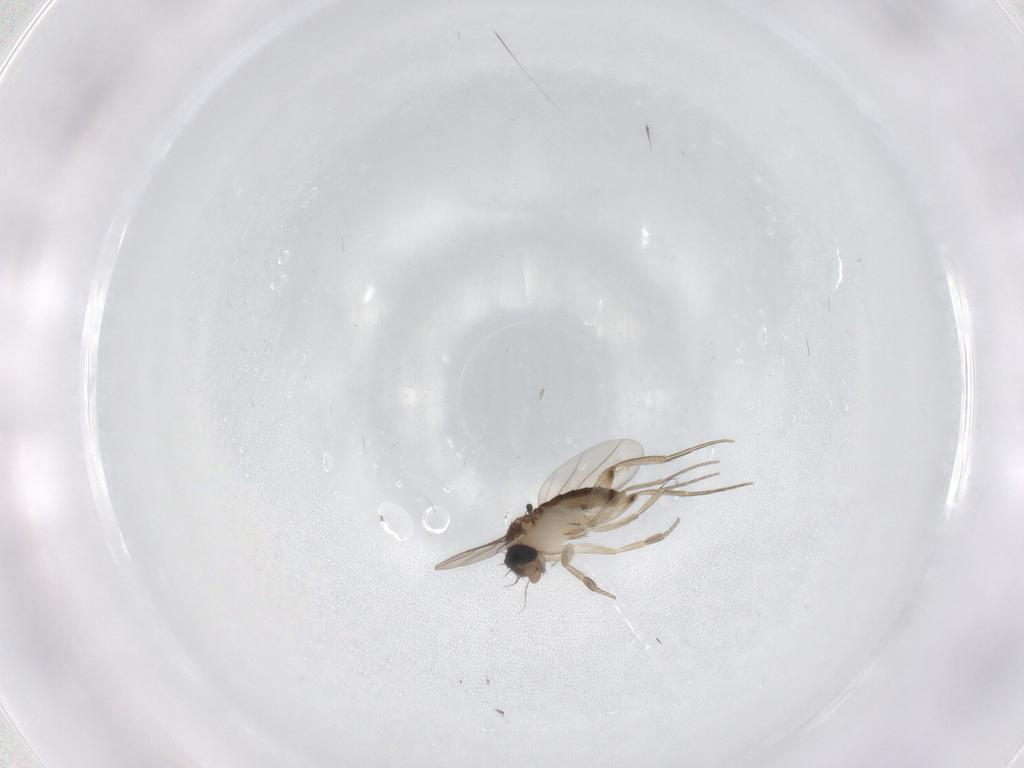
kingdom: Animalia
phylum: Arthropoda
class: Insecta
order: Diptera
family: Phoridae
